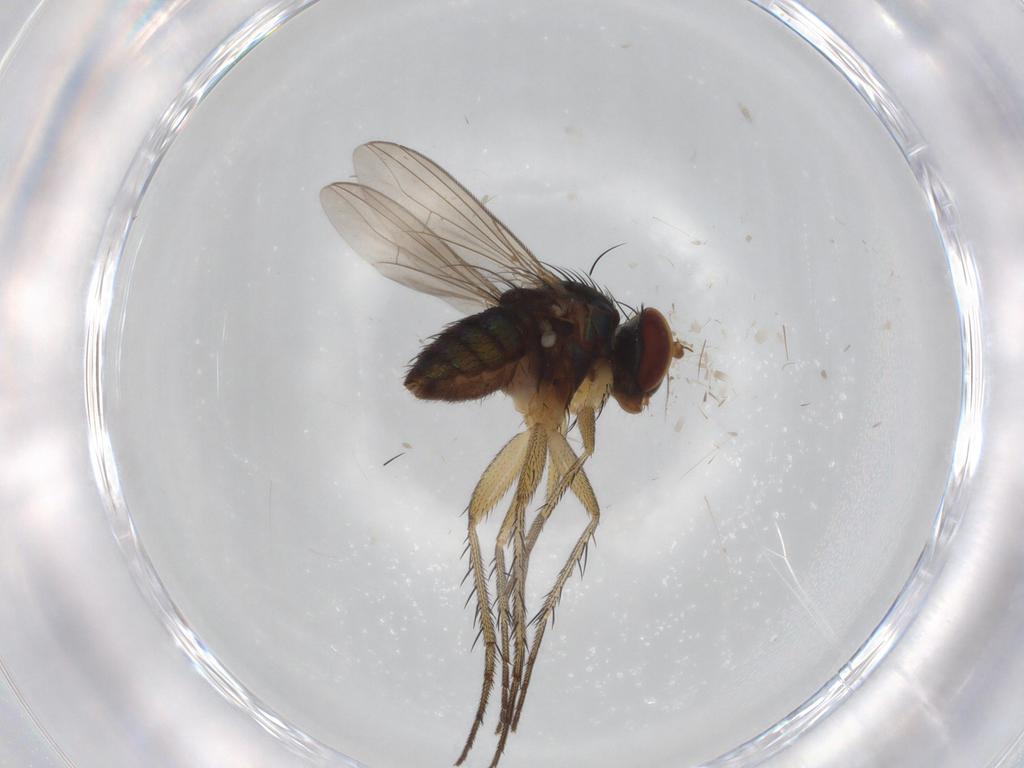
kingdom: Animalia
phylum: Arthropoda
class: Insecta
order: Diptera
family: Dolichopodidae
